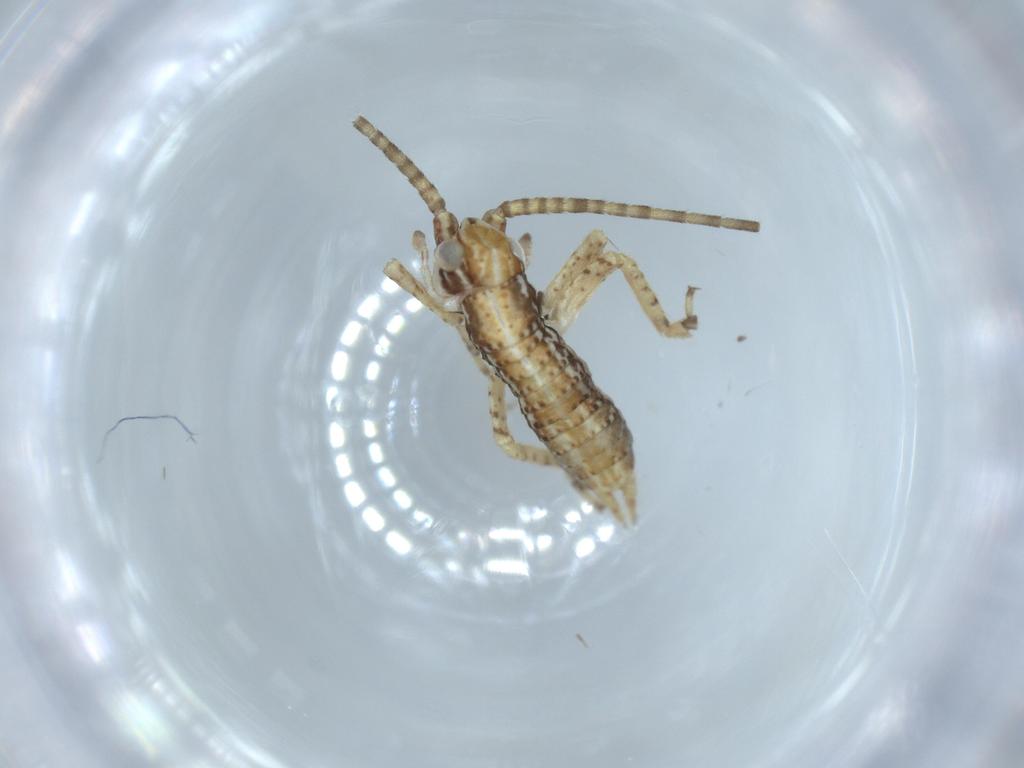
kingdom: Animalia
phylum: Arthropoda
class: Insecta
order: Orthoptera
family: Gryllidae
